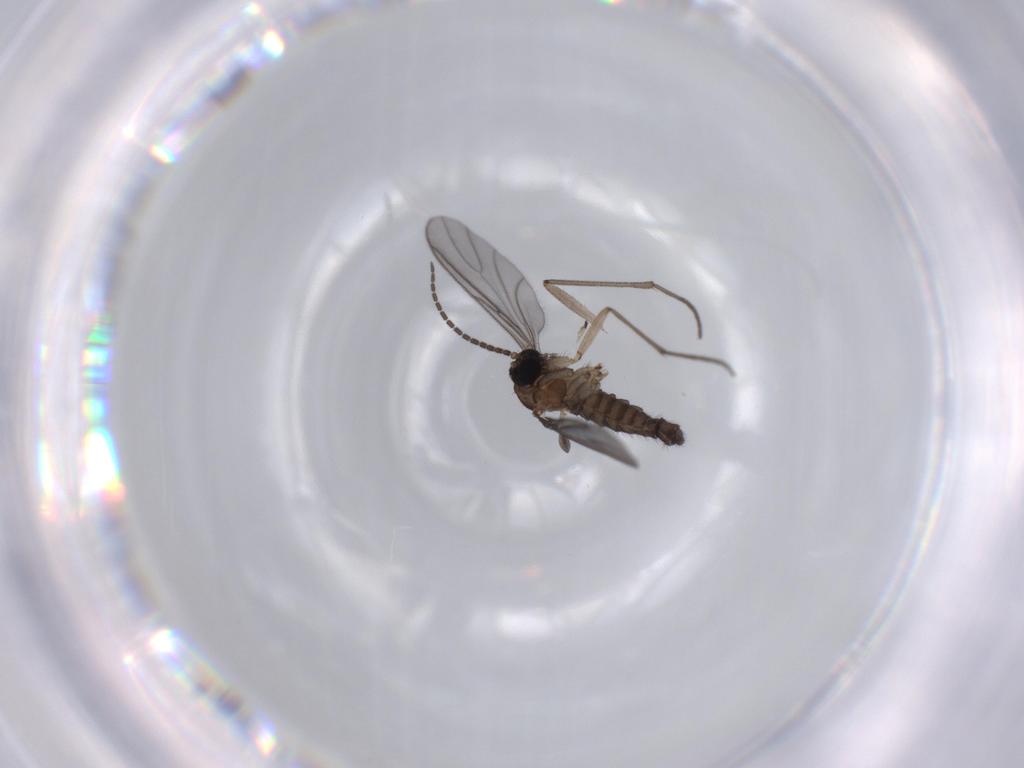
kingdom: Animalia
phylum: Arthropoda
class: Insecta
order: Diptera
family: Sciaridae
